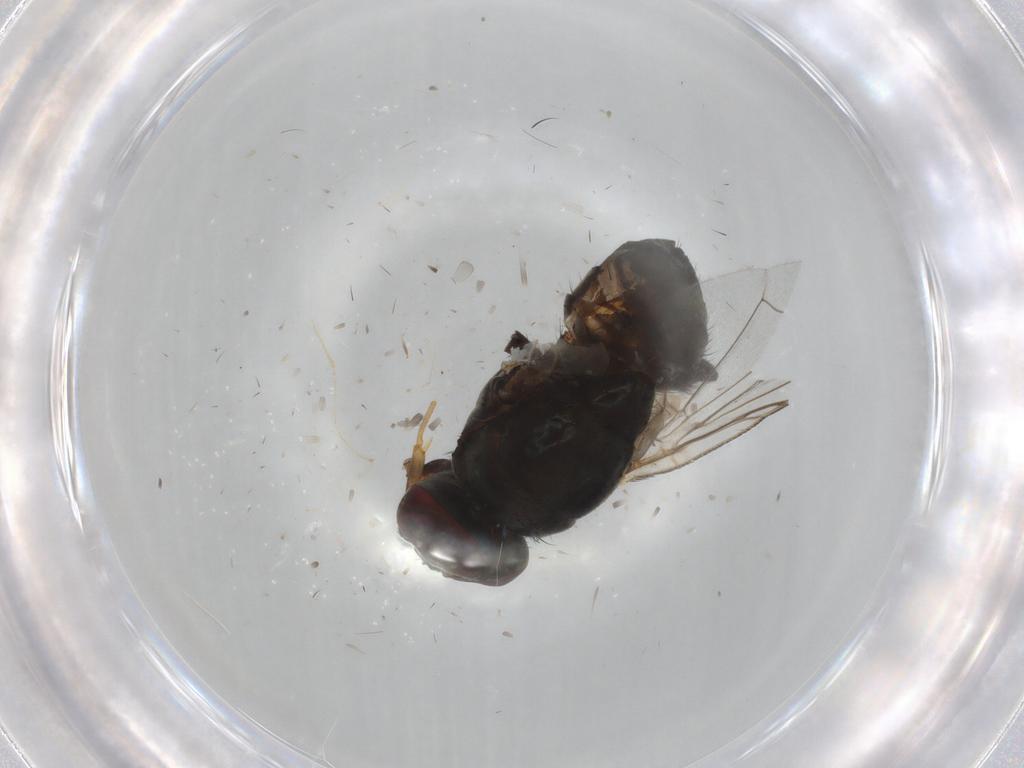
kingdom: Animalia
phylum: Arthropoda
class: Insecta
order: Diptera
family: Muscidae
